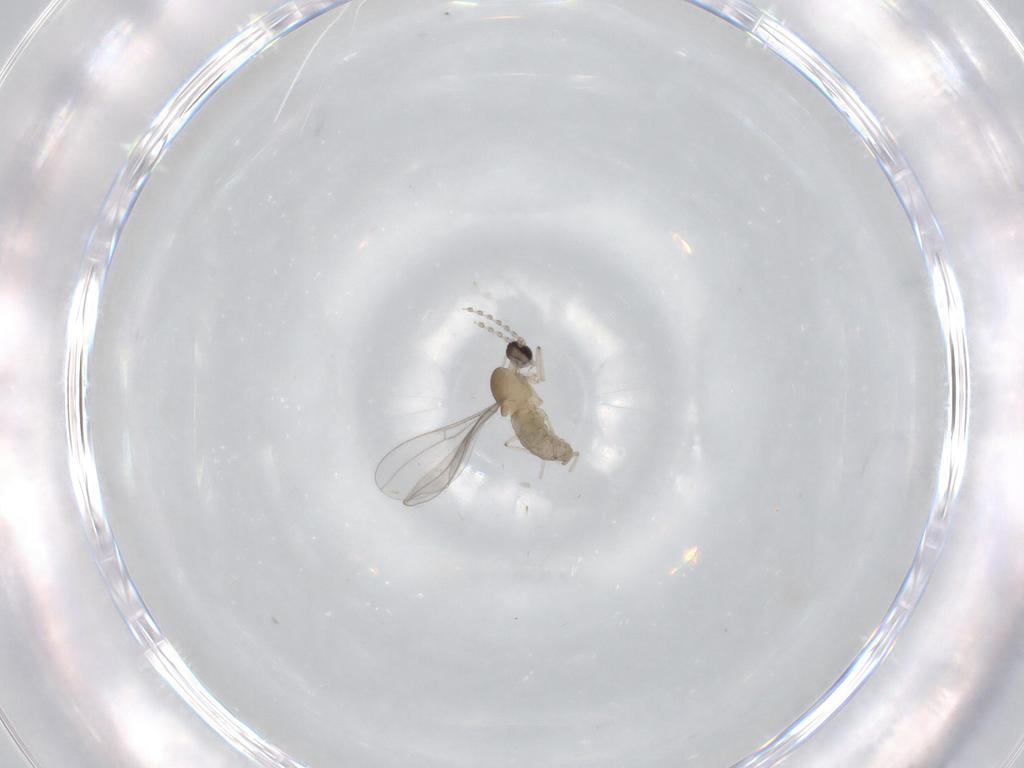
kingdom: Animalia
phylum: Arthropoda
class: Insecta
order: Diptera
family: Cecidomyiidae
